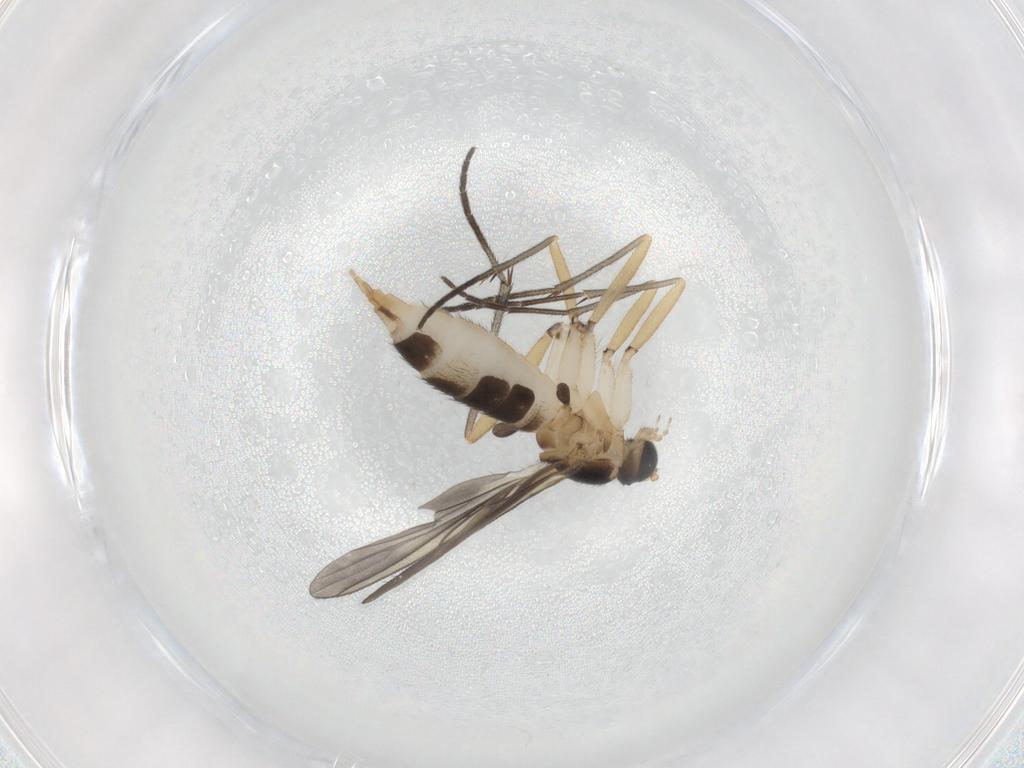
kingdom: Animalia
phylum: Arthropoda
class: Insecta
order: Diptera
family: Sciaridae
